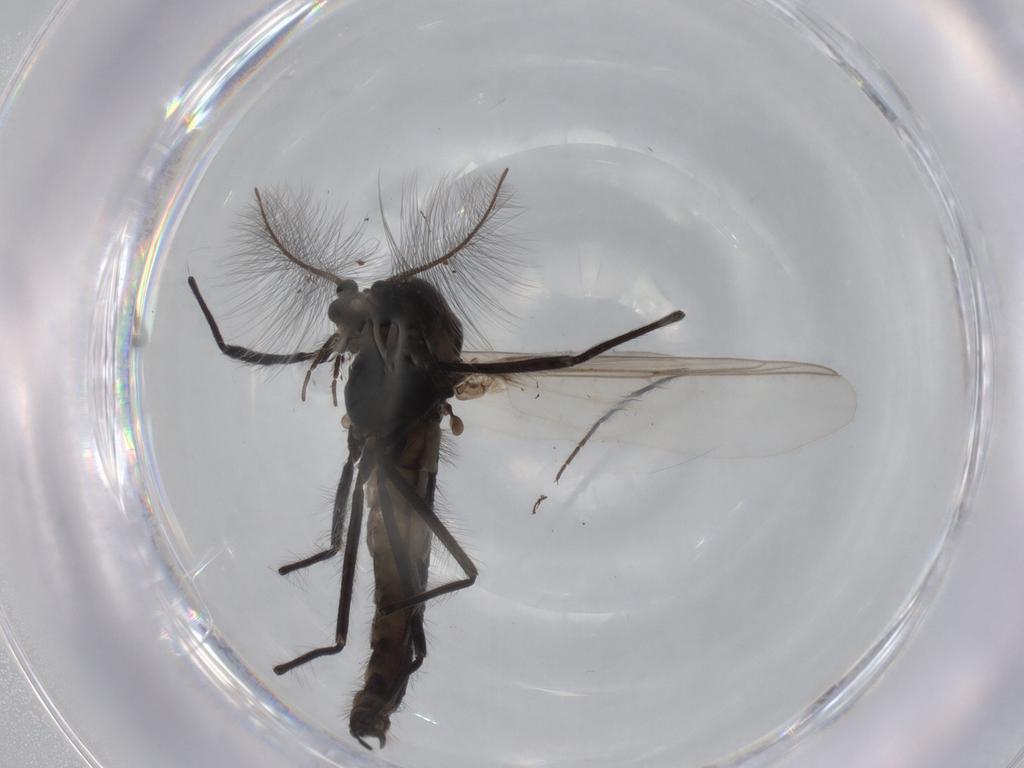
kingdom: Animalia
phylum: Arthropoda
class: Insecta
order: Diptera
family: Chironomidae
